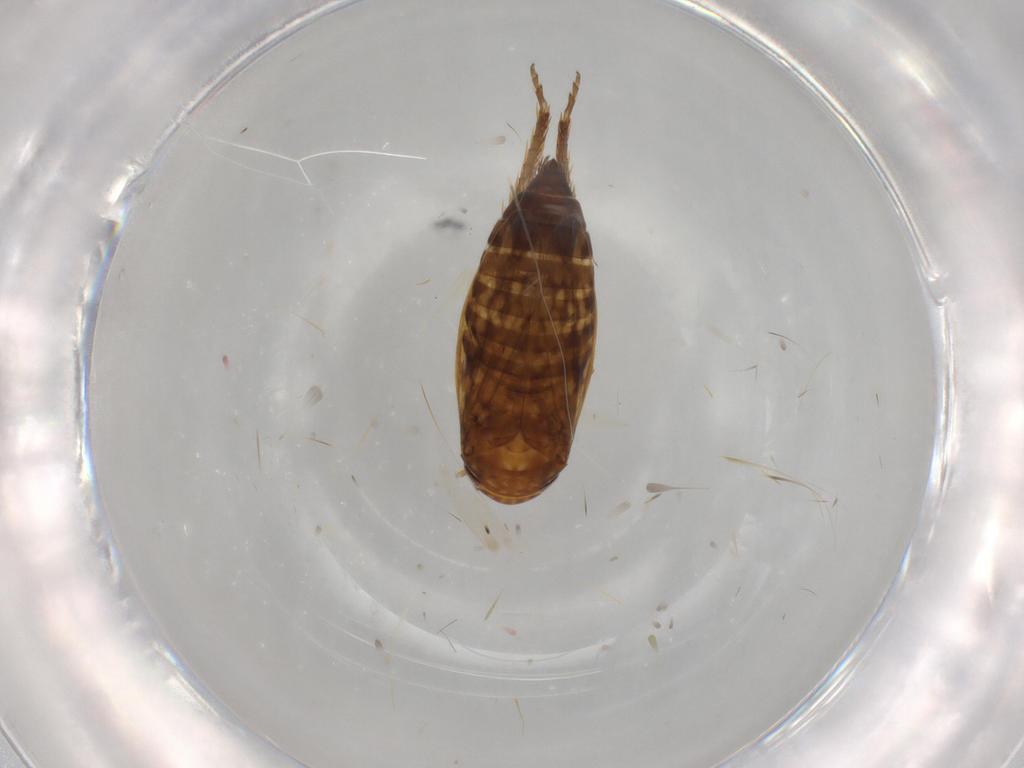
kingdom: Animalia
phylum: Arthropoda
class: Insecta
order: Hemiptera
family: Cicadellidae
